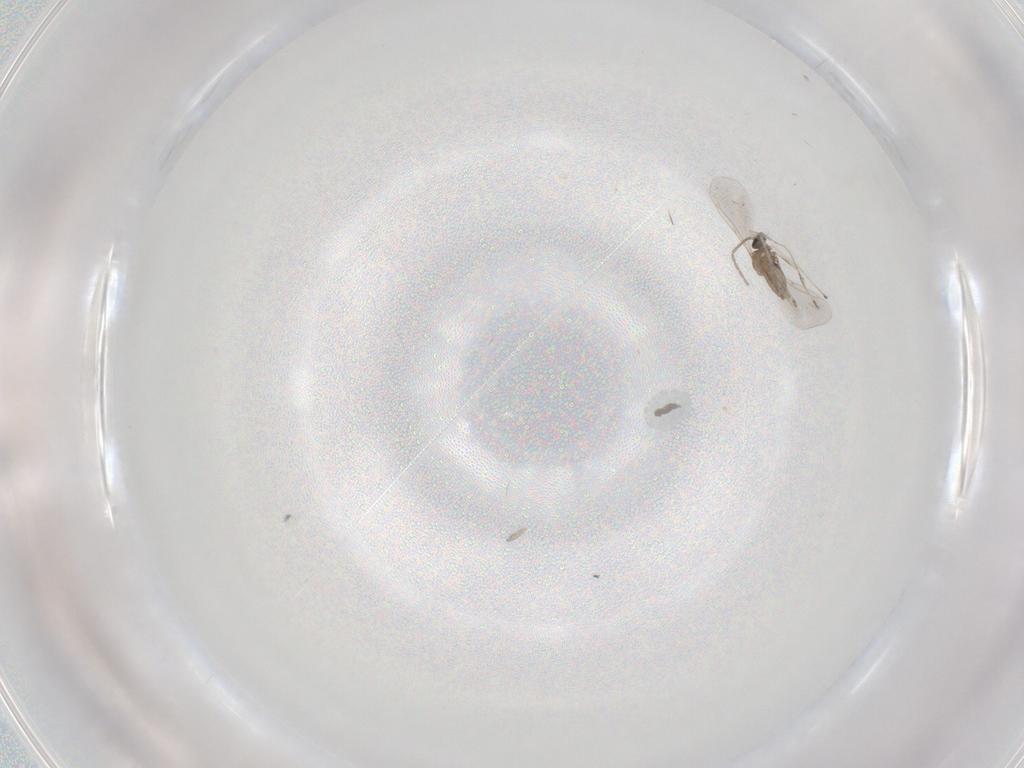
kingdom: Animalia
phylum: Arthropoda
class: Insecta
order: Diptera
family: Cecidomyiidae
